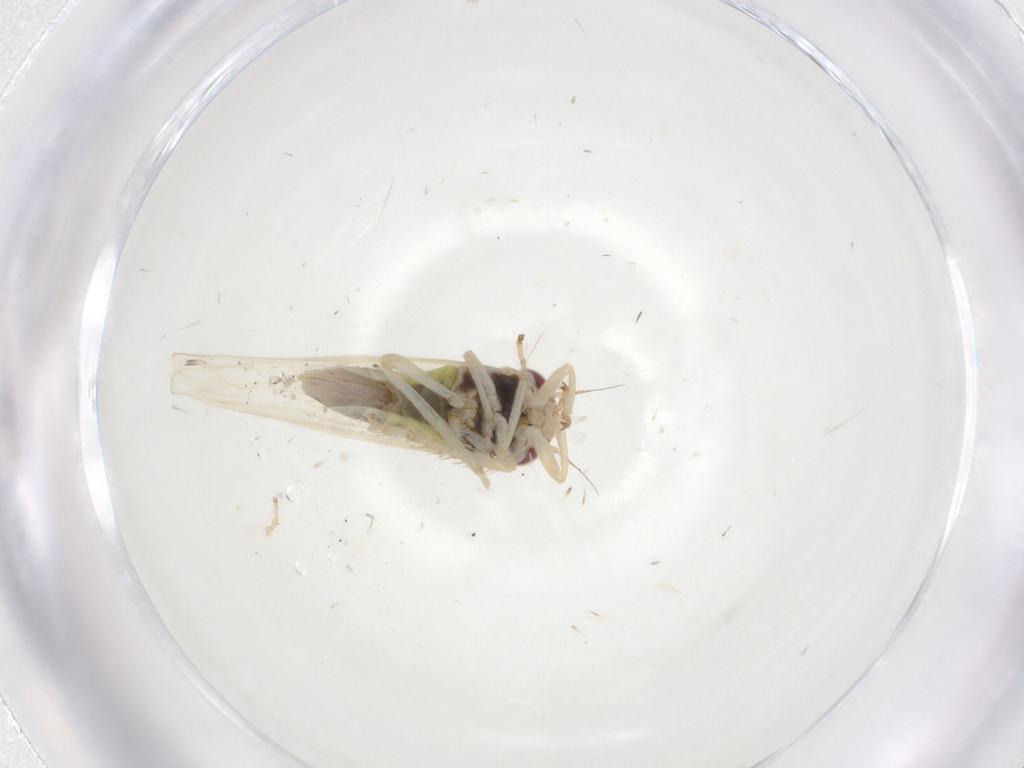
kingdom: Animalia
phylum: Arthropoda
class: Insecta
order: Hemiptera
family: Cicadellidae
